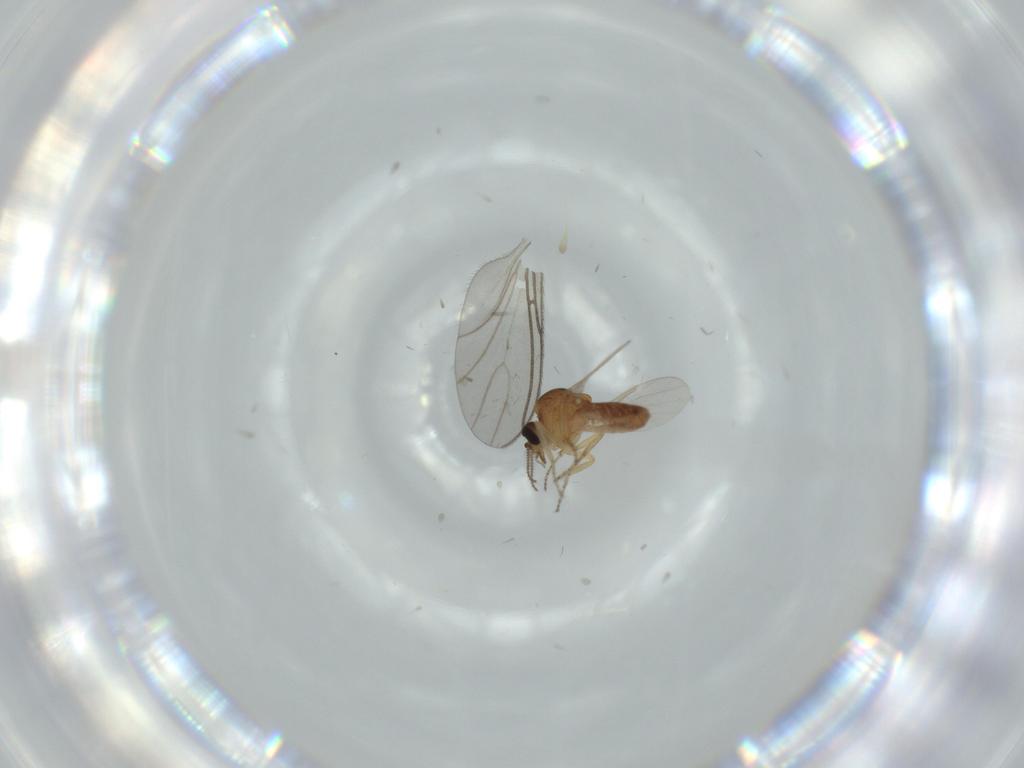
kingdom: Animalia
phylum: Arthropoda
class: Insecta
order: Diptera
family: Ceratopogonidae
